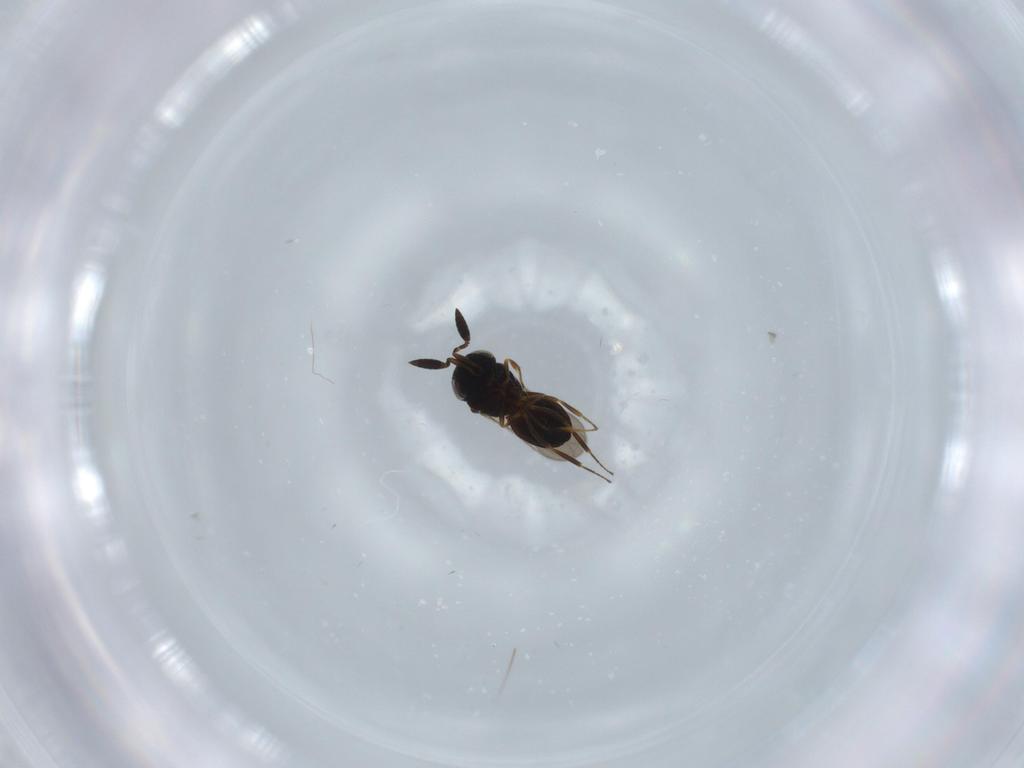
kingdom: Animalia
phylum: Arthropoda
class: Insecta
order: Hymenoptera
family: Scelionidae
